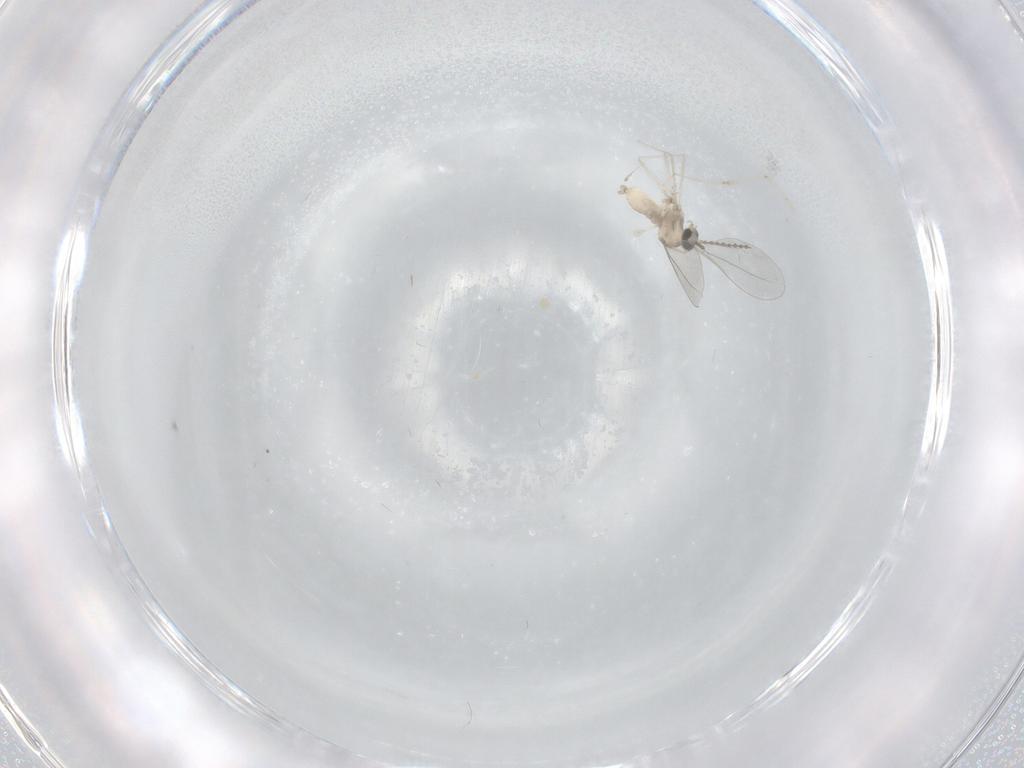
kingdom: Animalia
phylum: Arthropoda
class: Insecta
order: Diptera
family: Cecidomyiidae
